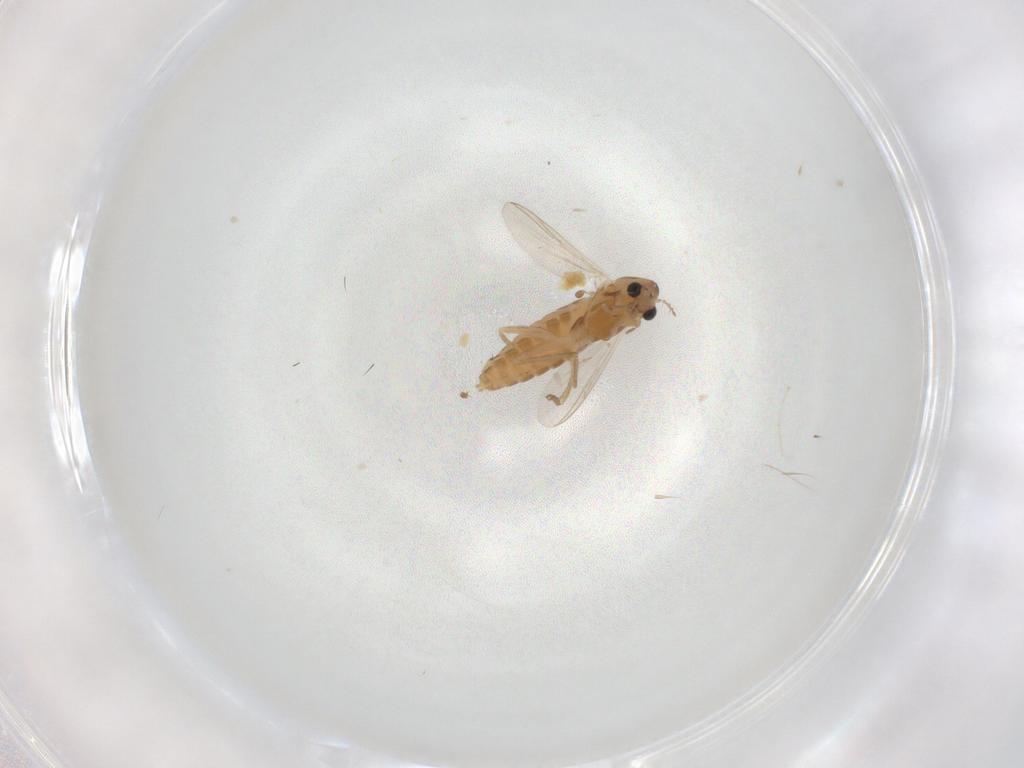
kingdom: Animalia
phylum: Arthropoda
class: Insecta
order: Diptera
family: Chironomidae
